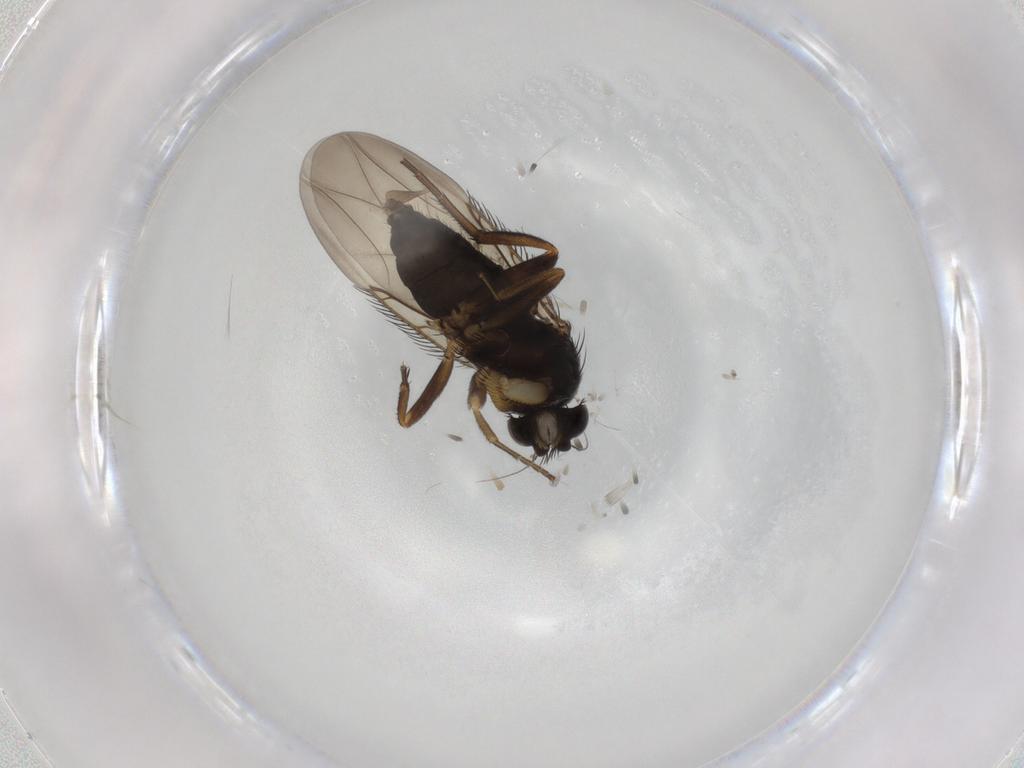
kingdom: Animalia
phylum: Arthropoda
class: Insecta
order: Diptera
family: Phoridae
